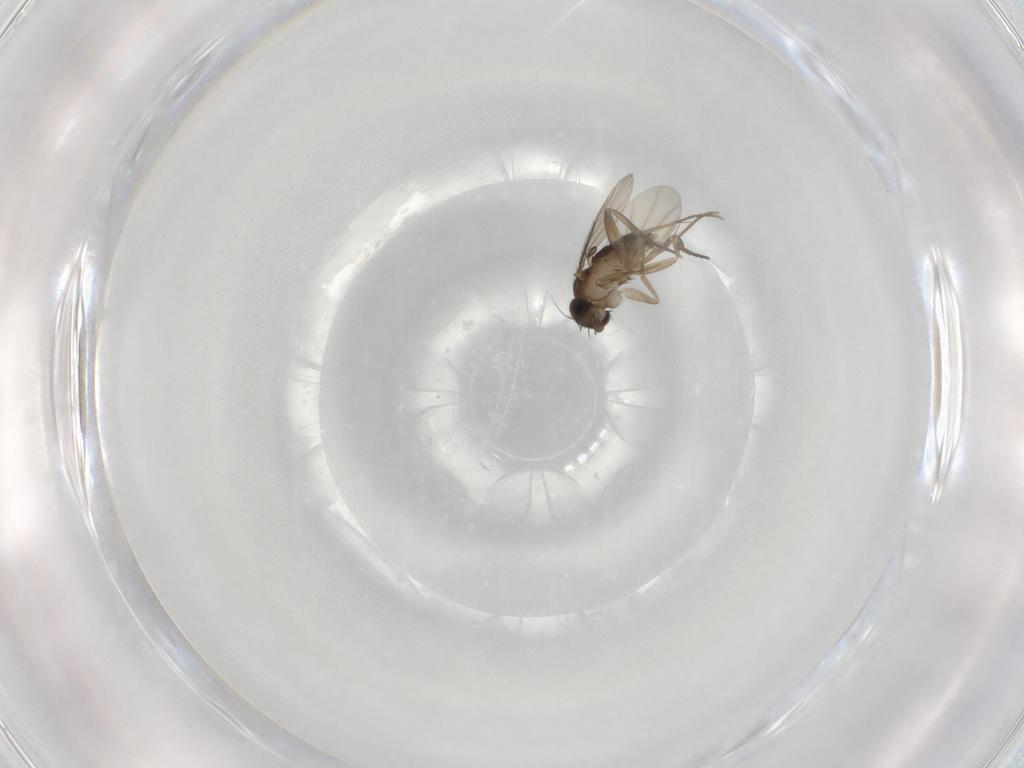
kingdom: Animalia
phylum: Arthropoda
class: Insecta
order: Diptera
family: Phoridae
